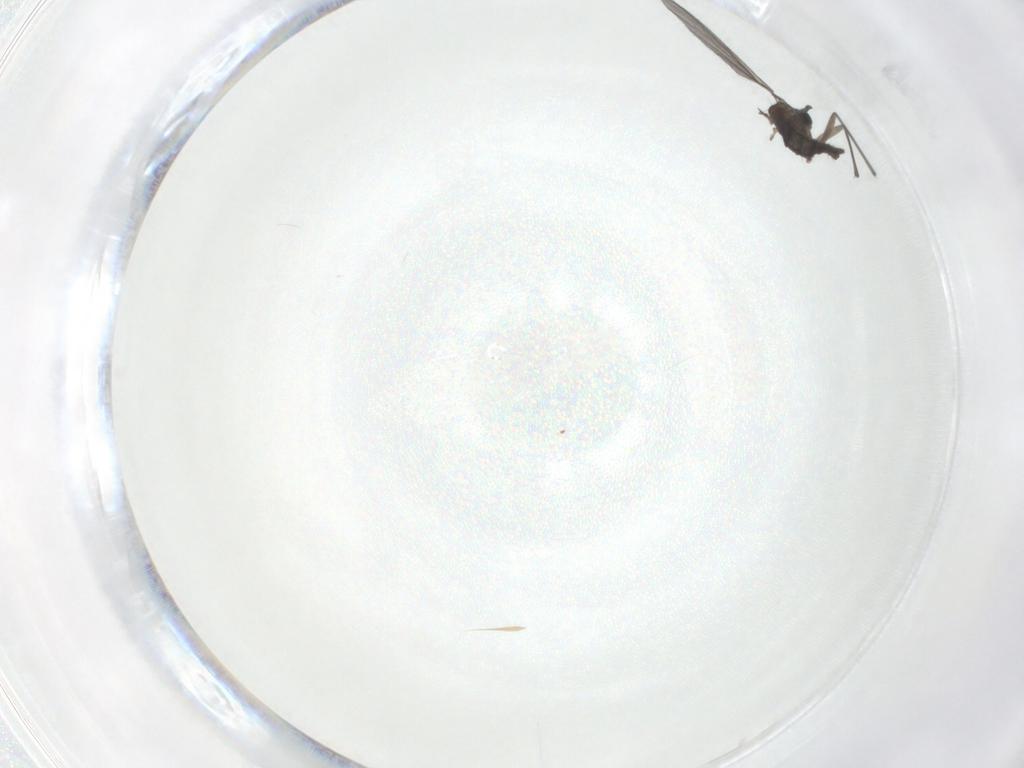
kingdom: Animalia
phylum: Arthropoda
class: Insecta
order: Diptera
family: Sciaridae
